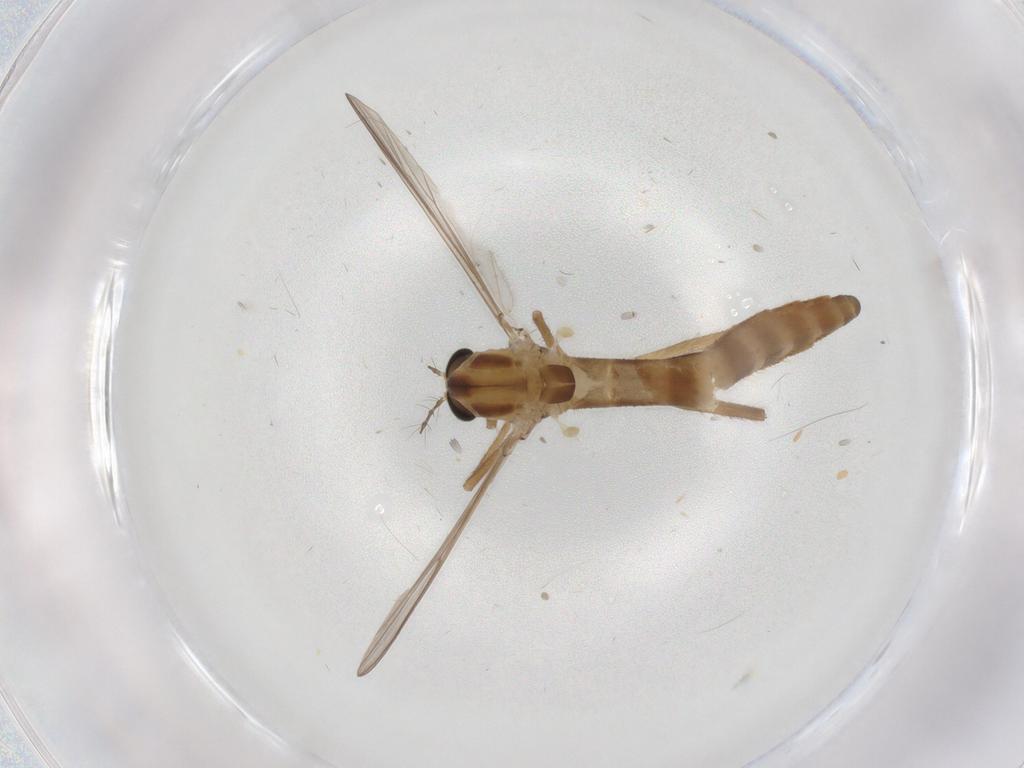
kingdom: Animalia
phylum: Arthropoda
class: Insecta
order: Diptera
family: Chironomidae
